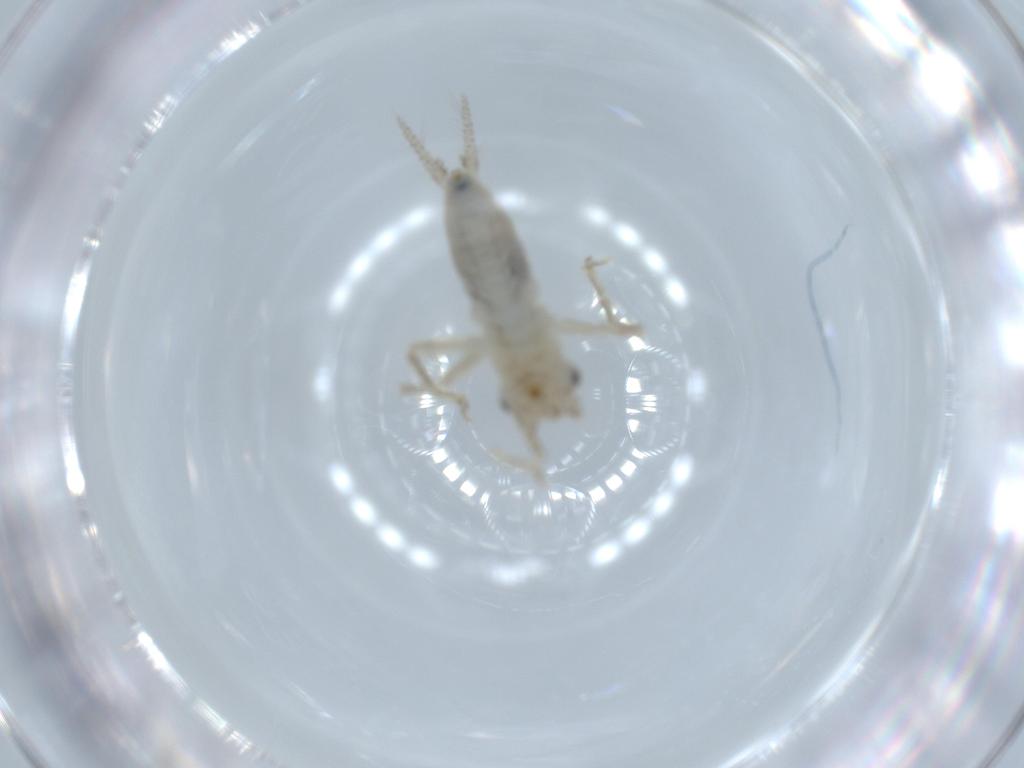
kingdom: Animalia
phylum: Arthropoda
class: Insecta
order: Orthoptera
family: Trigonidiidae
